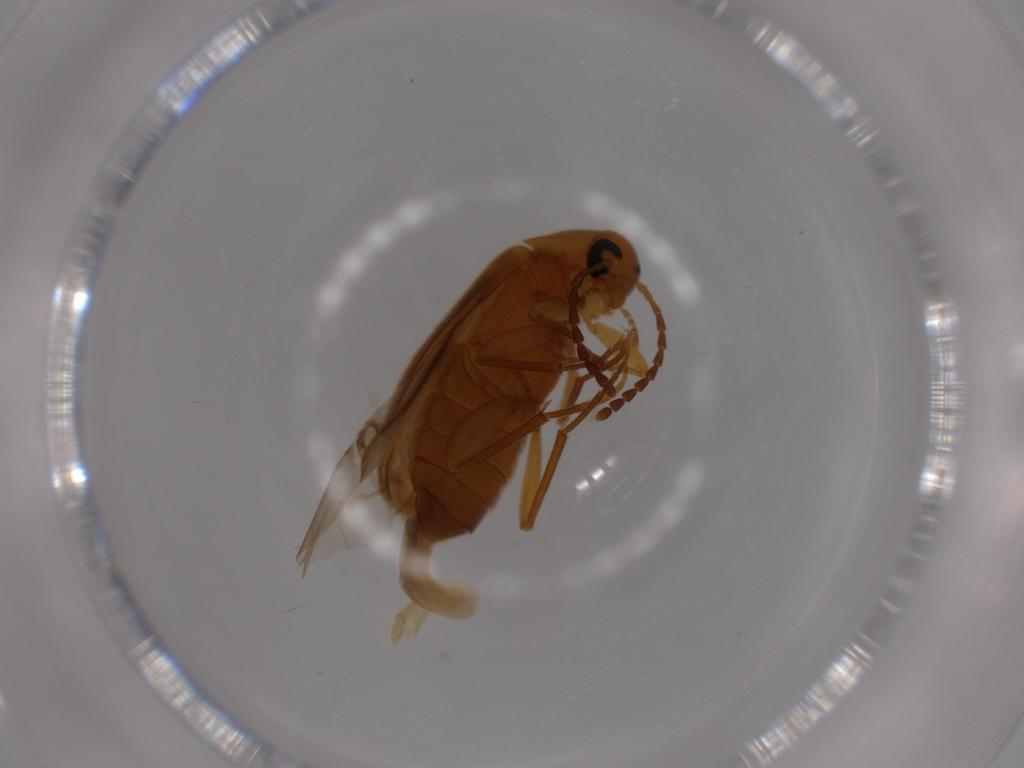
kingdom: Animalia
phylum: Arthropoda
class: Insecta
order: Coleoptera
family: Scraptiidae
